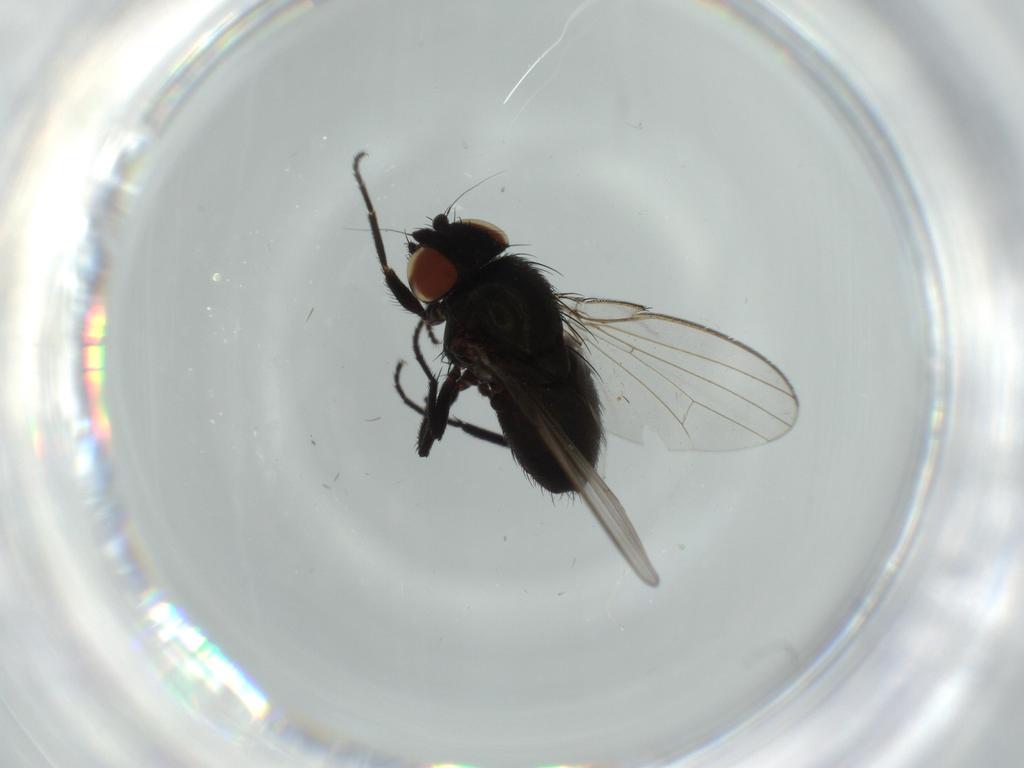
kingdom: Animalia
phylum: Arthropoda
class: Insecta
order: Diptera
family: Milichiidae
